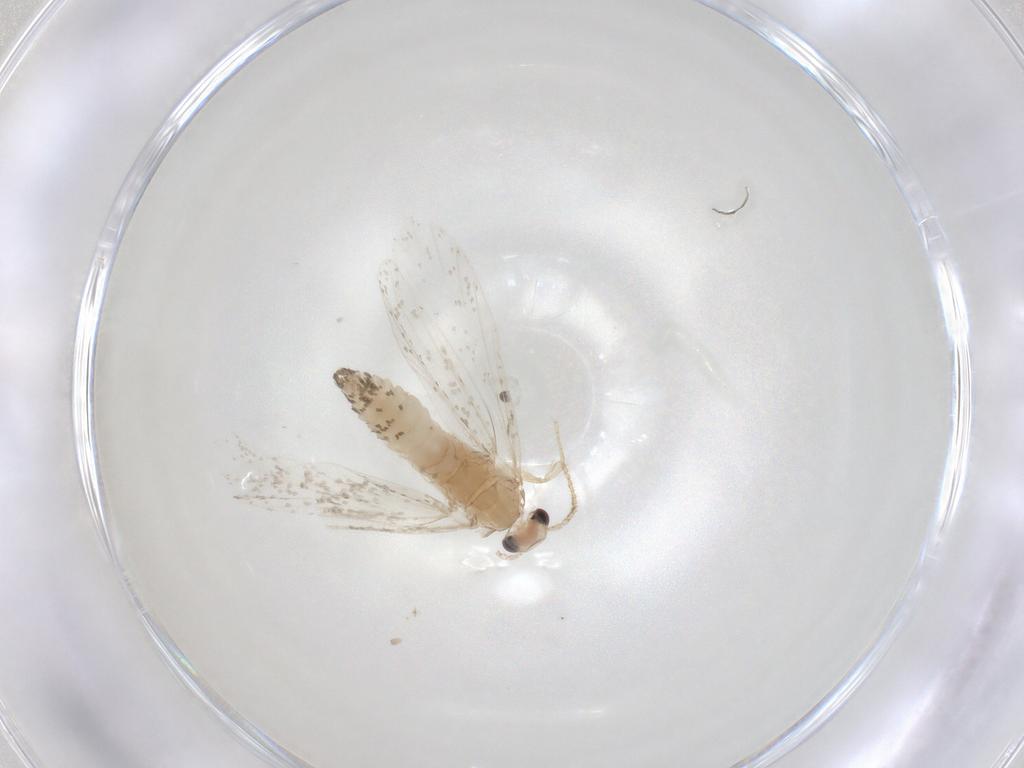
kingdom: Animalia
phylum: Arthropoda
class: Insecta
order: Lepidoptera
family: Psychidae
